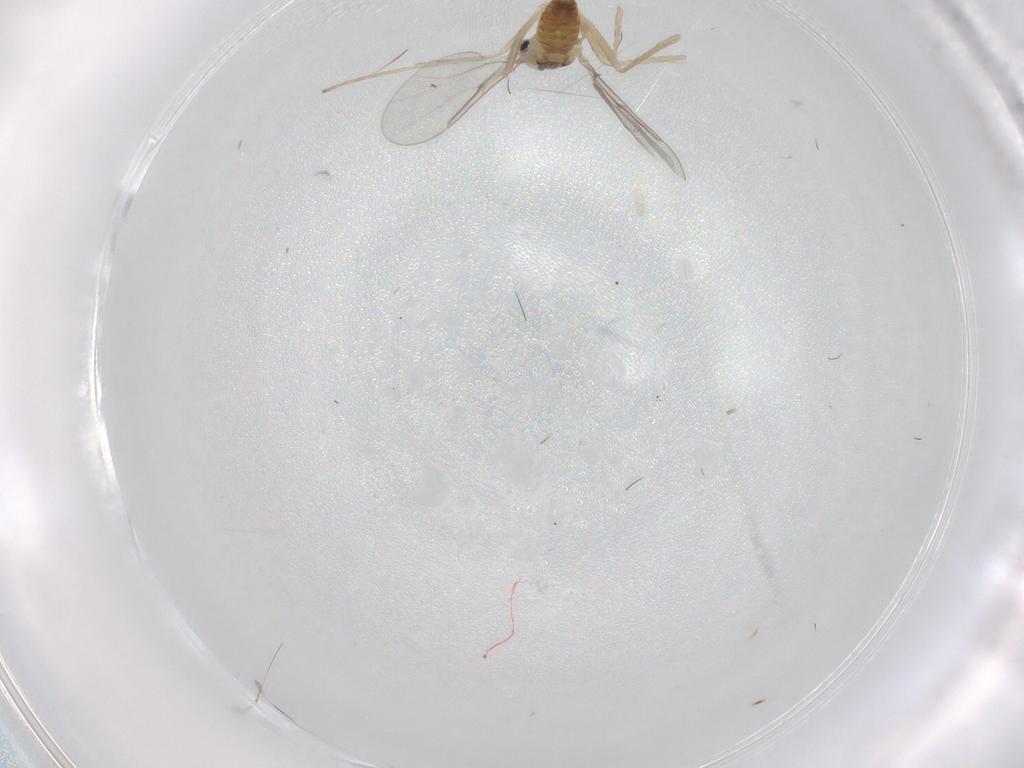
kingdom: Animalia
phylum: Arthropoda
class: Insecta
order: Diptera
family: Cecidomyiidae
